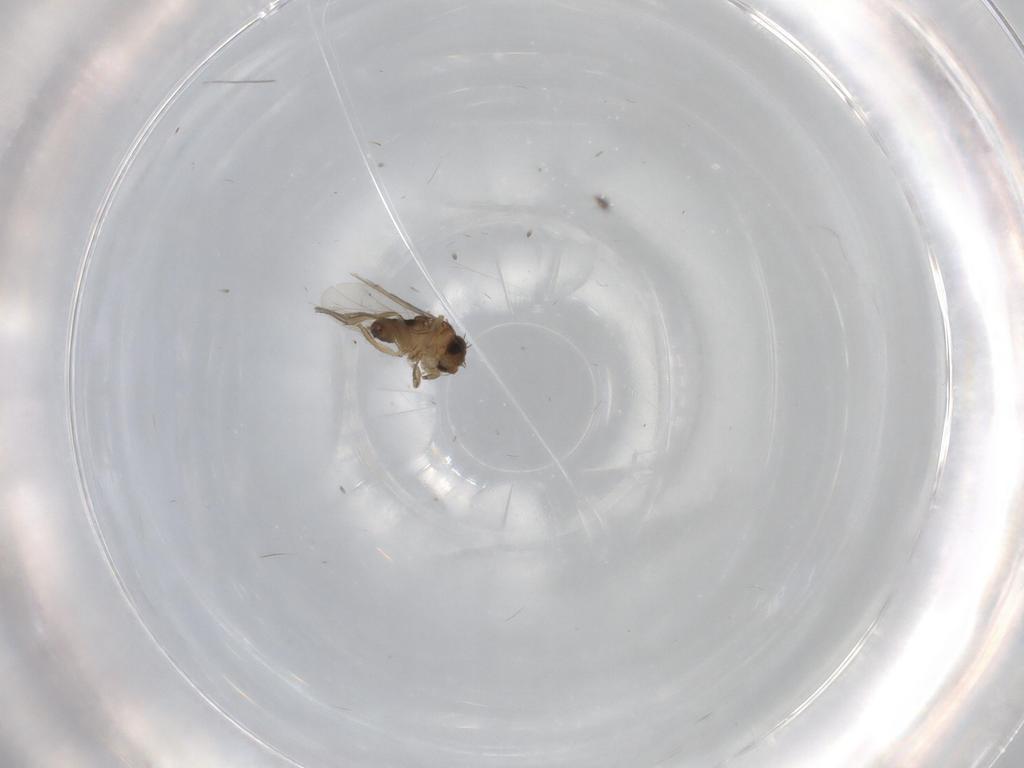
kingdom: Animalia
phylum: Arthropoda
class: Insecta
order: Diptera
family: Phoridae
